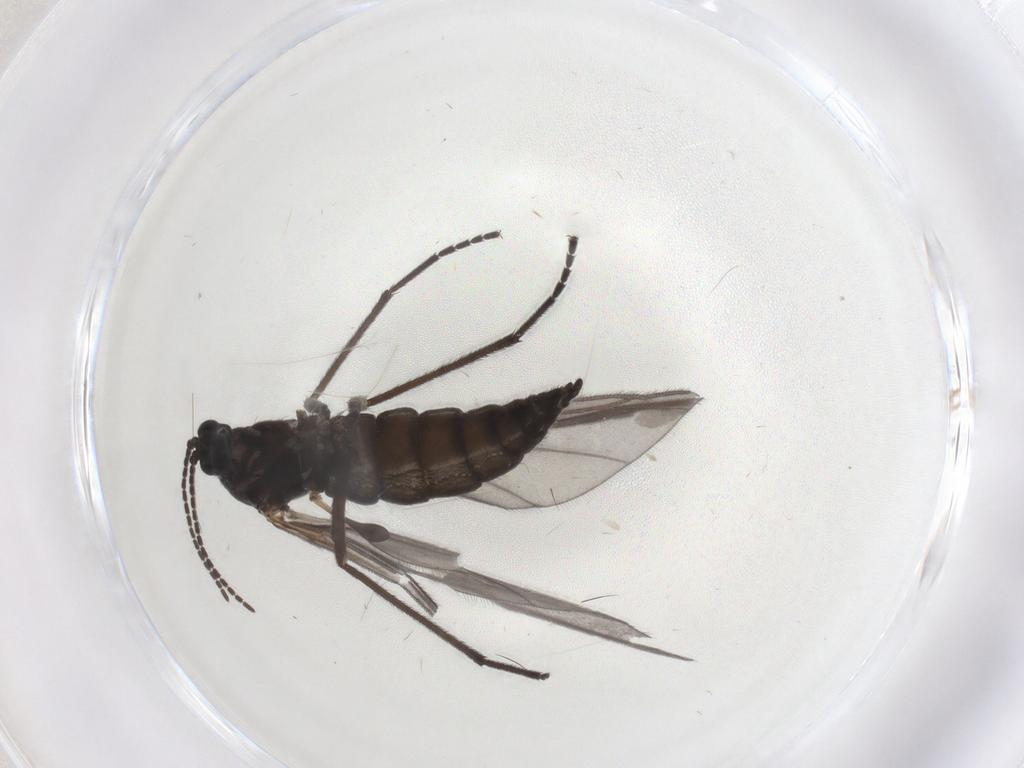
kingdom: Animalia
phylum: Arthropoda
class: Insecta
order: Diptera
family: Sciaridae
